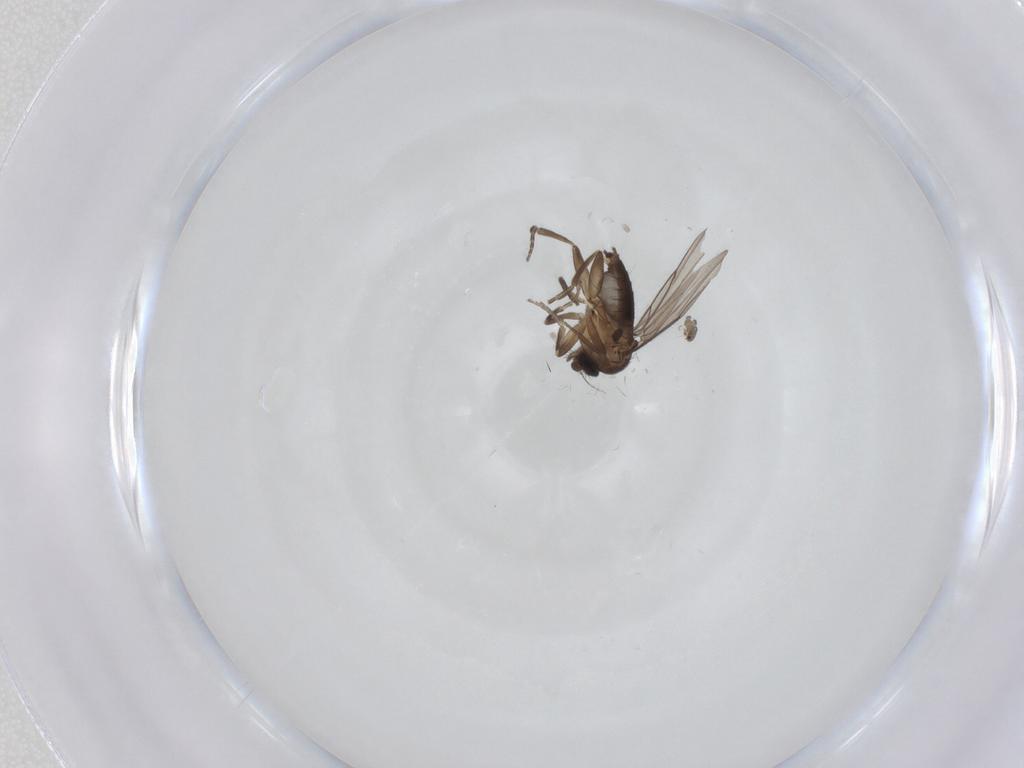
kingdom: Animalia
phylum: Arthropoda
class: Insecta
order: Diptera
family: Phoridae
